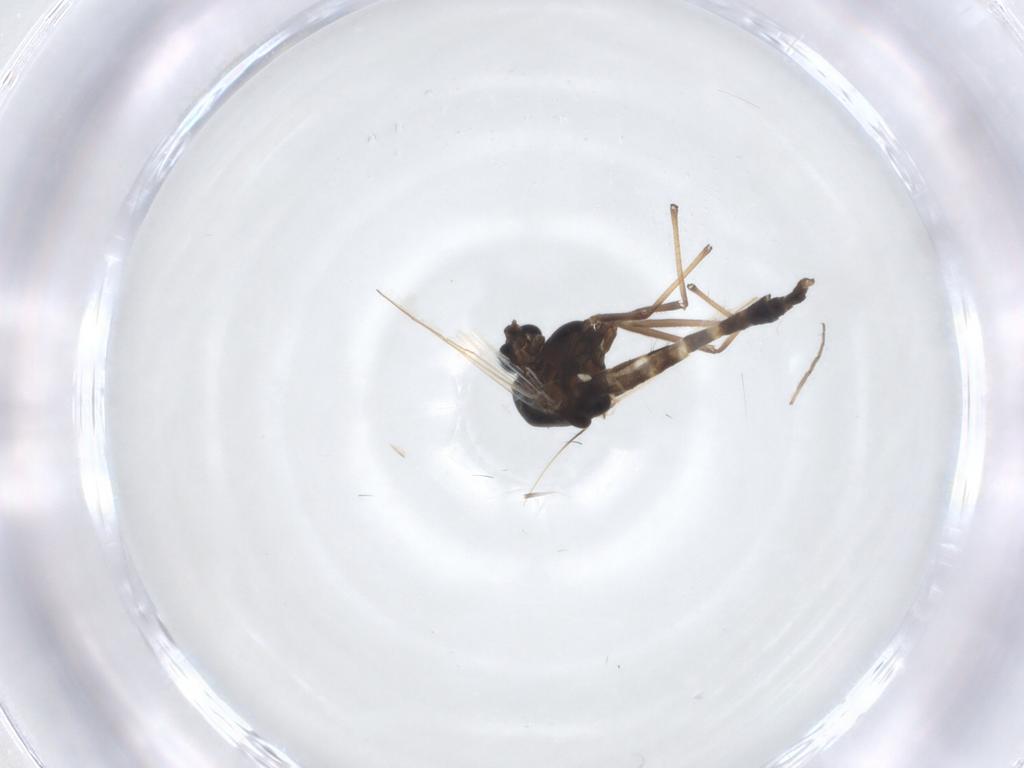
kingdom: Animalia
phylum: Arthropoda
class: Insecta
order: Diptera
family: Chironomidae
